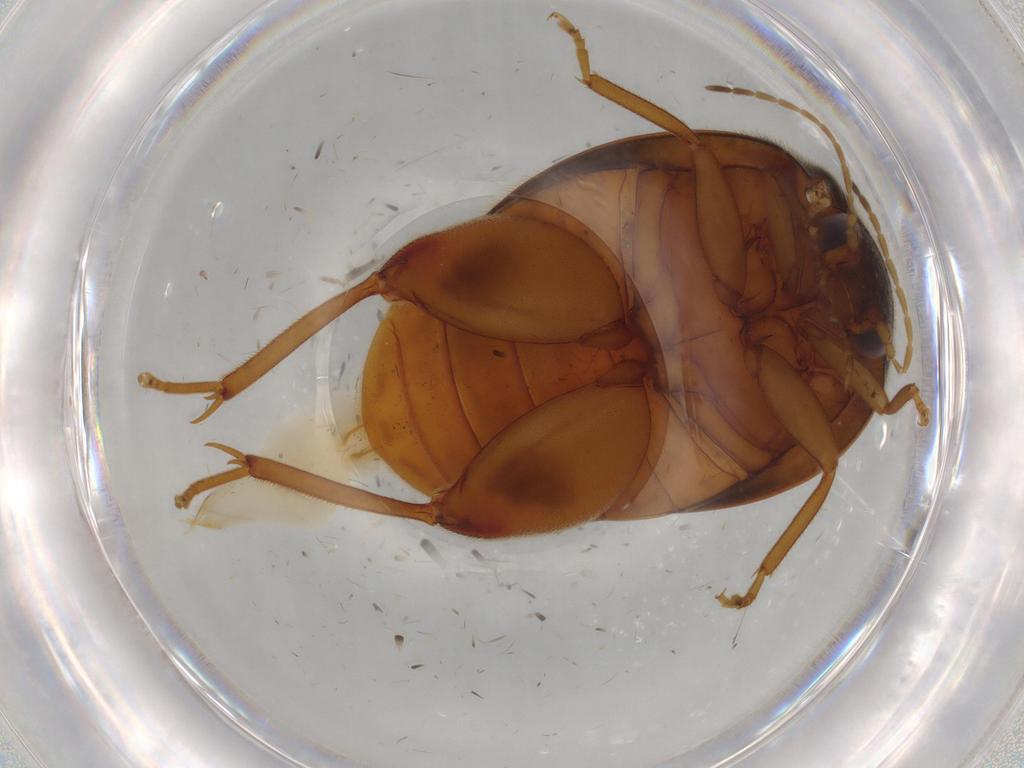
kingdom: Animalia
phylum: Arthropoda
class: Insecta
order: Coleoptera
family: Scirtidae
